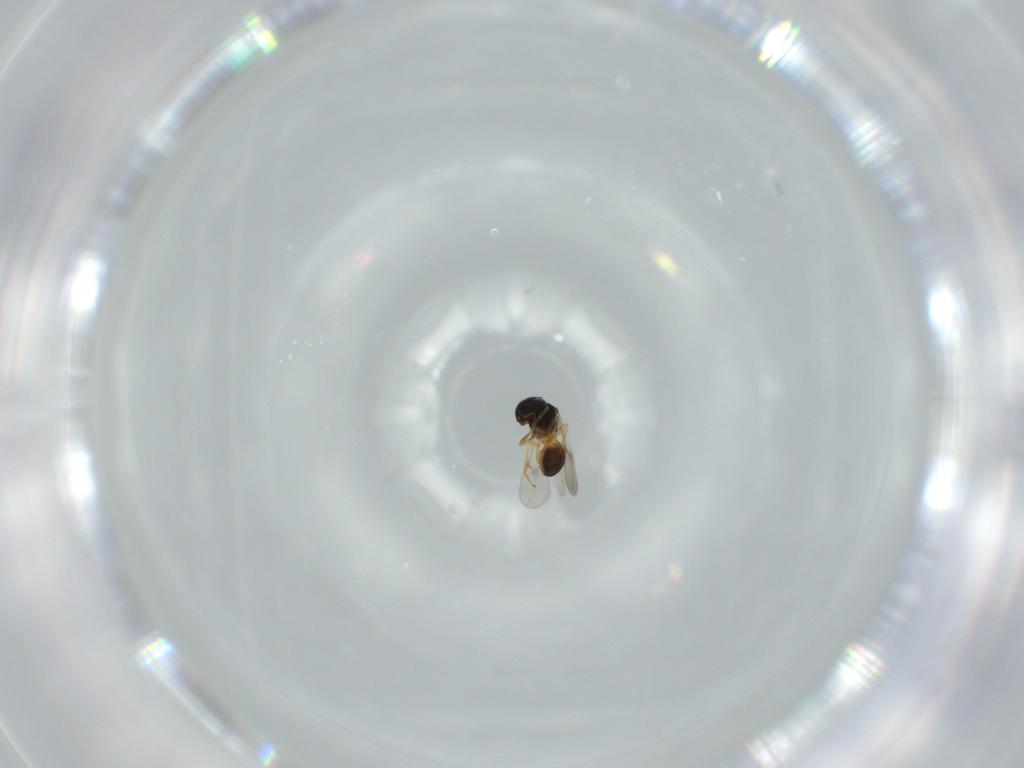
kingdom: Animalia
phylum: Arthropoda
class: Insecta
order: Hymenoptera
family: Scelionidae
